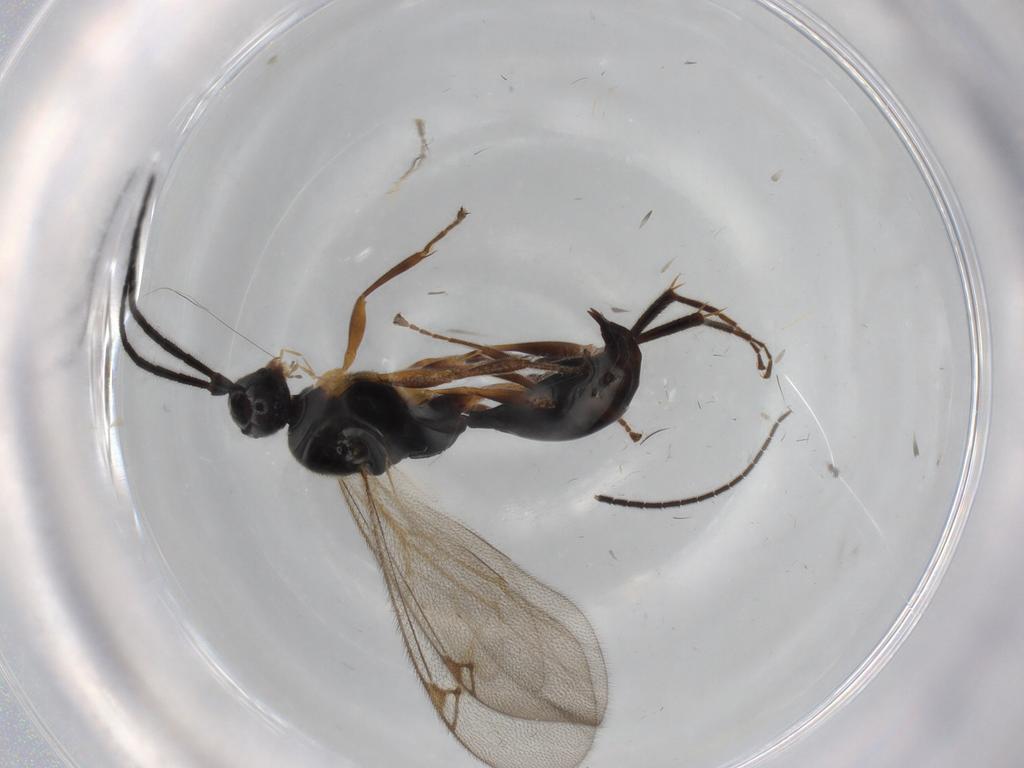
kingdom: Animalia
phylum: Arthropoda
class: Insecta
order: Hymenoptera
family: Proctotrupidae
